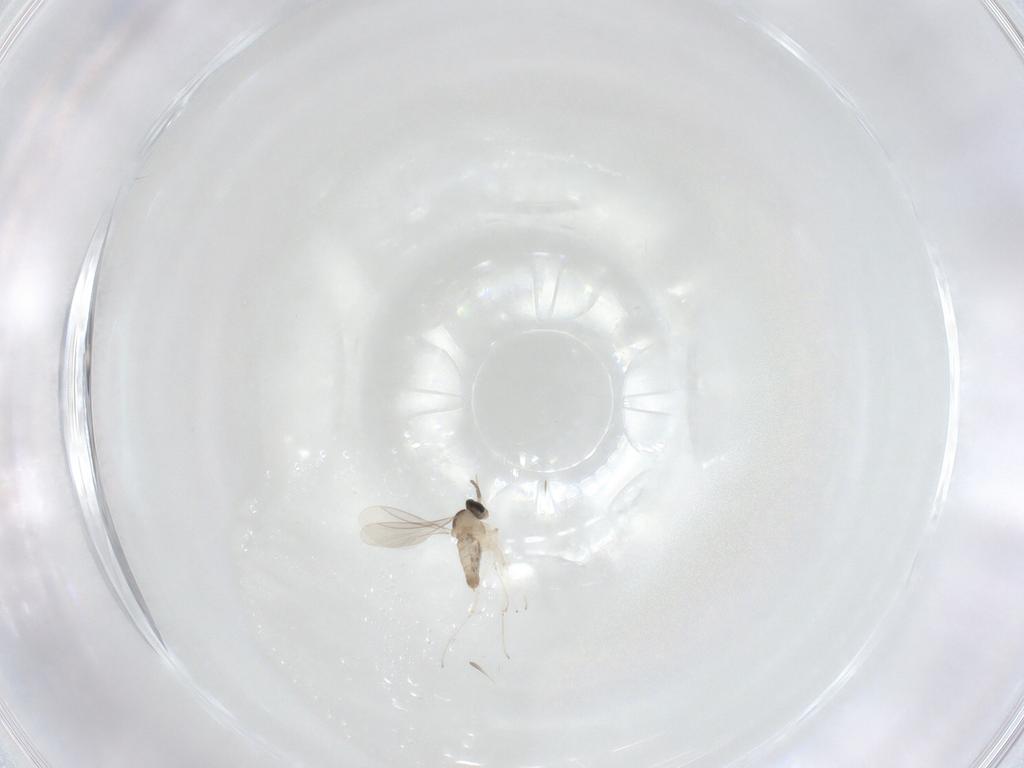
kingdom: Animalia
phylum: Arthropoda
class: Insecta
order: Diptera
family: Cecidomyiidae
